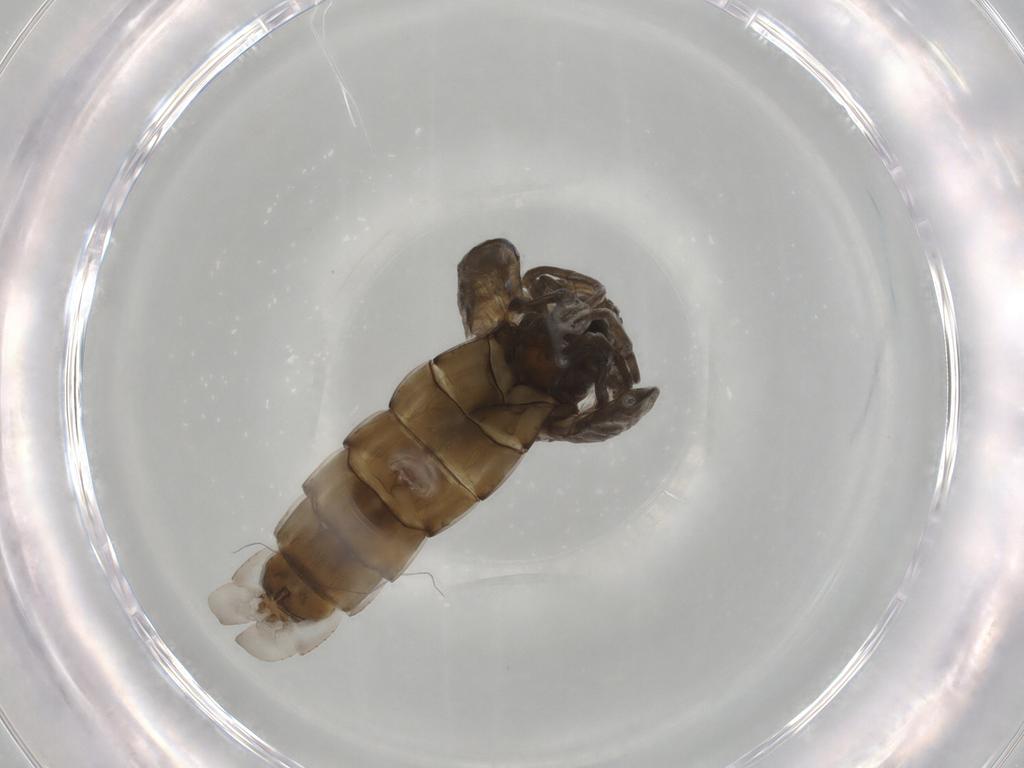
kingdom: Animalia
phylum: Arthropoda
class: Insecta
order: Diptera
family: Chironomidae
